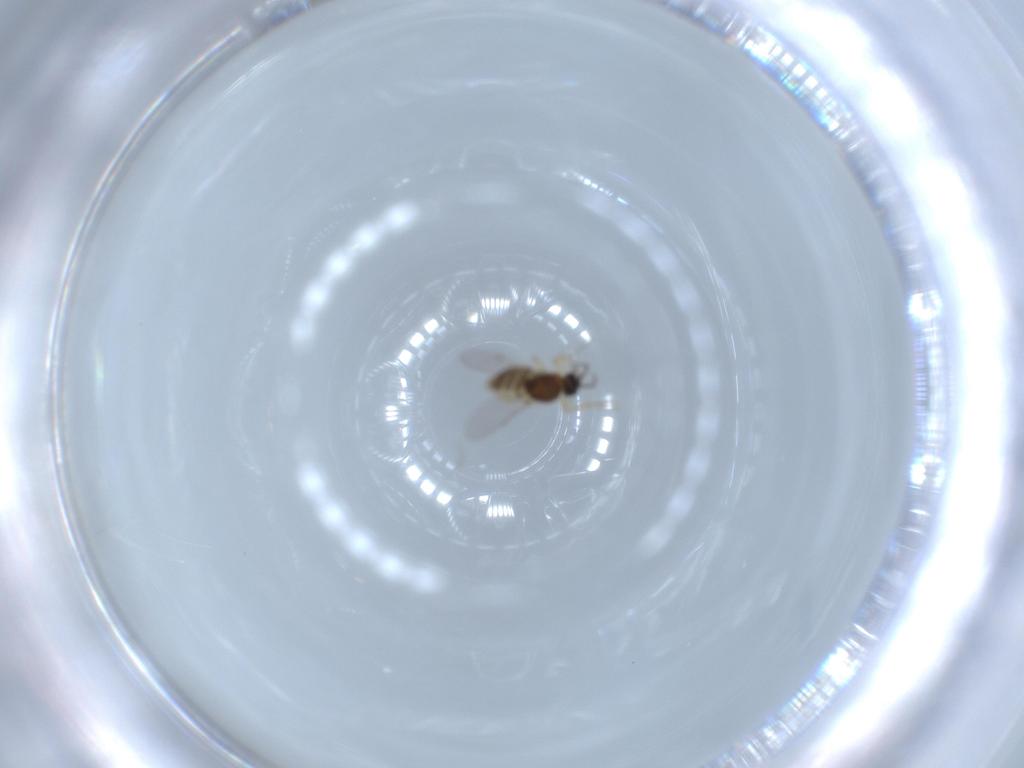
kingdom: Animalia
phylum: Arthropoda
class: Insecta
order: Diptera
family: Ceratopogonidae
